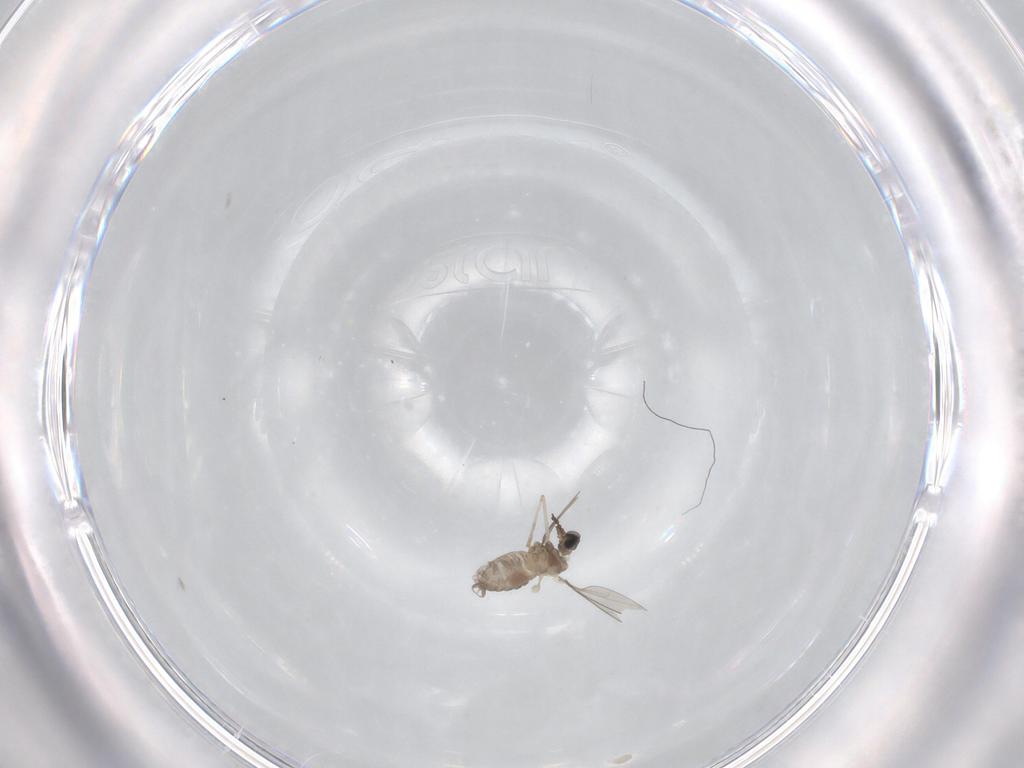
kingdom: Animalia
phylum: Arthropoda
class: Insecta
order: Diptera
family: Cecidomyiidae
